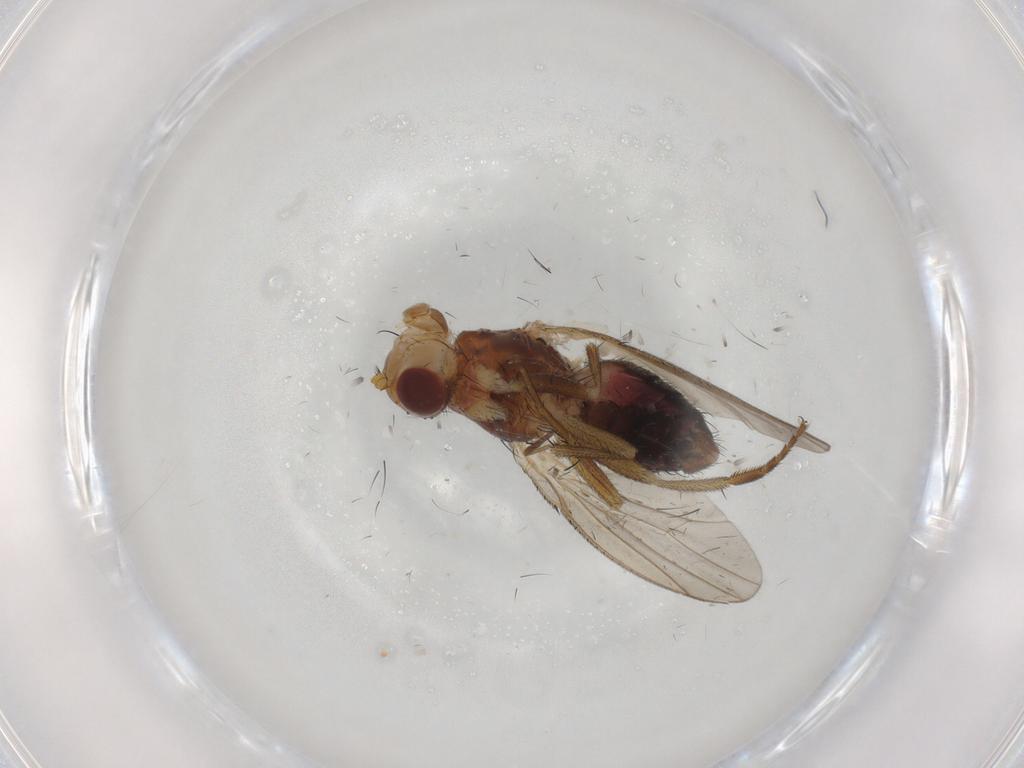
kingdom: Animalia
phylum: Arthropoda
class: Insecta
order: Diptera
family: Heleomyzidae
